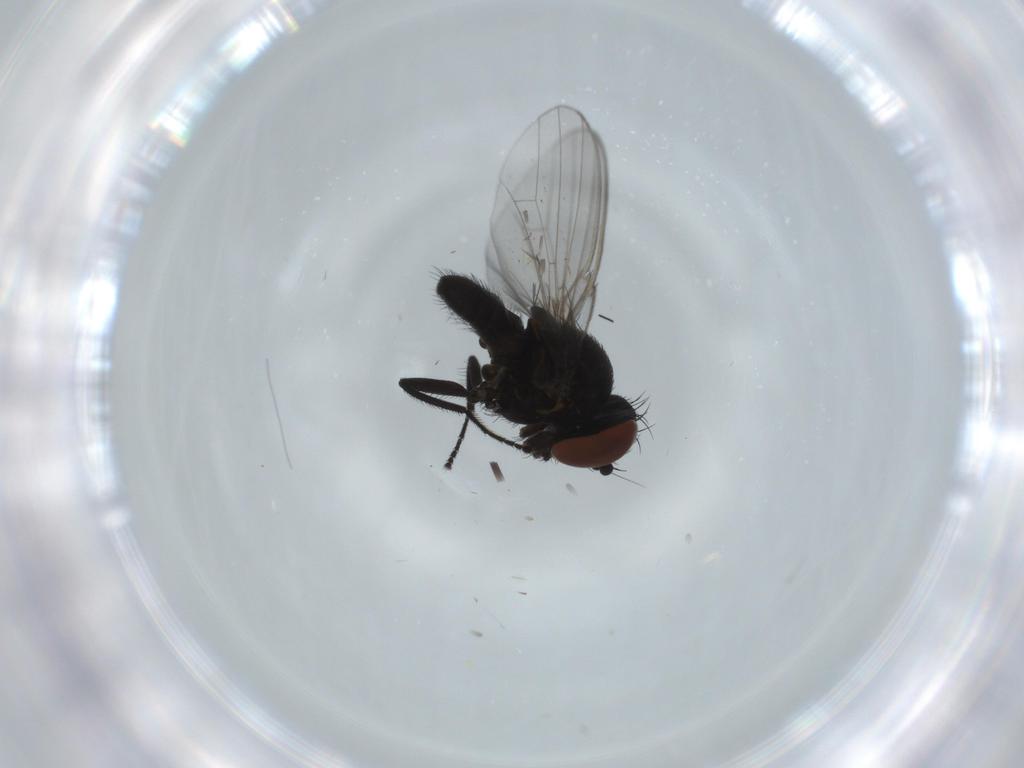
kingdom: Animalia
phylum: Arthropoda
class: Insecta
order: Diptera
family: Milichiidae
